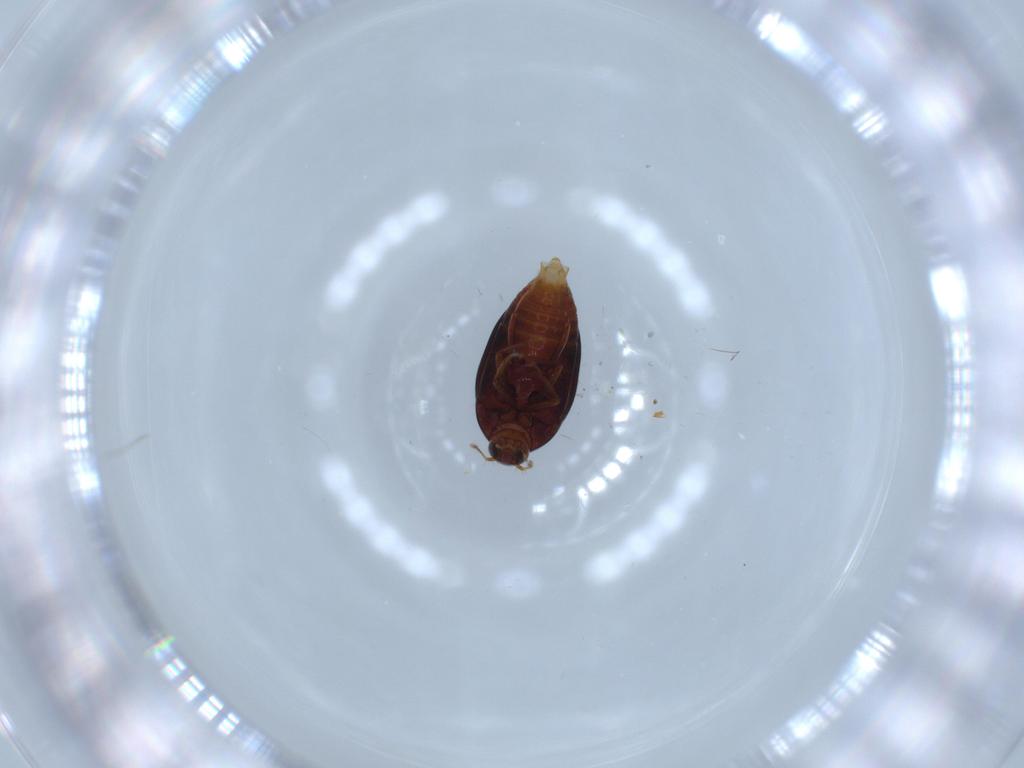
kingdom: Animalia
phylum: Arthropoda
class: Insecta
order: Coleoptera
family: Staphylinidae
